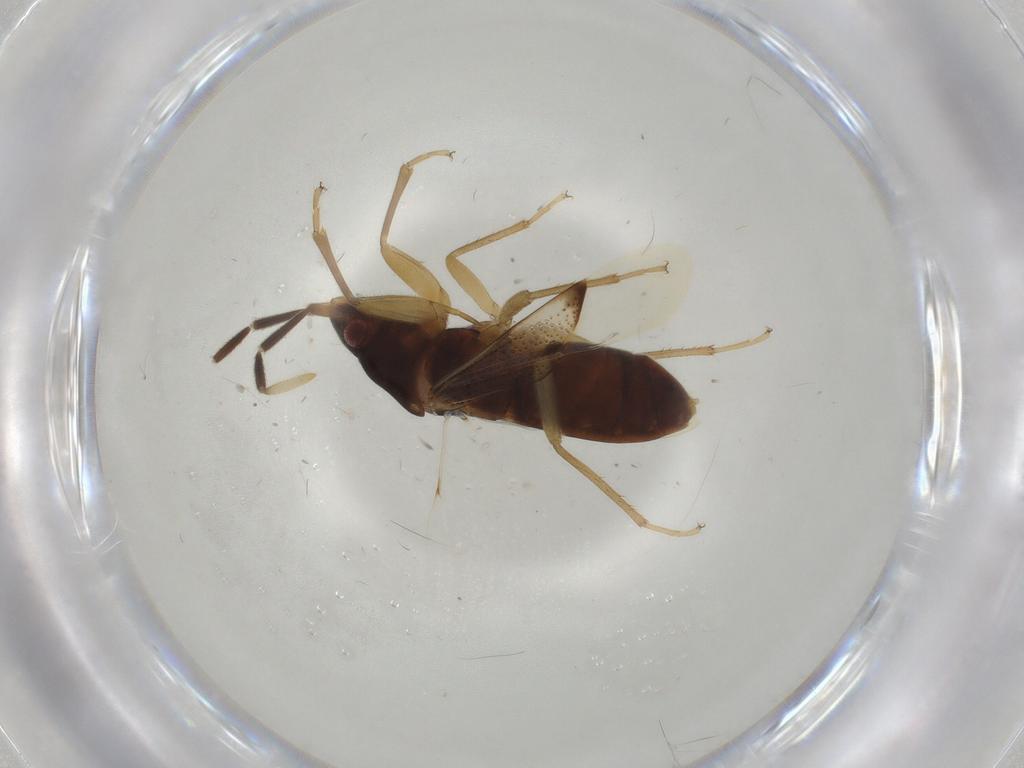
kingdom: Animalia
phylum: Arthropoda
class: Insecta
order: Hemiptera
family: Rhyparochromidae
